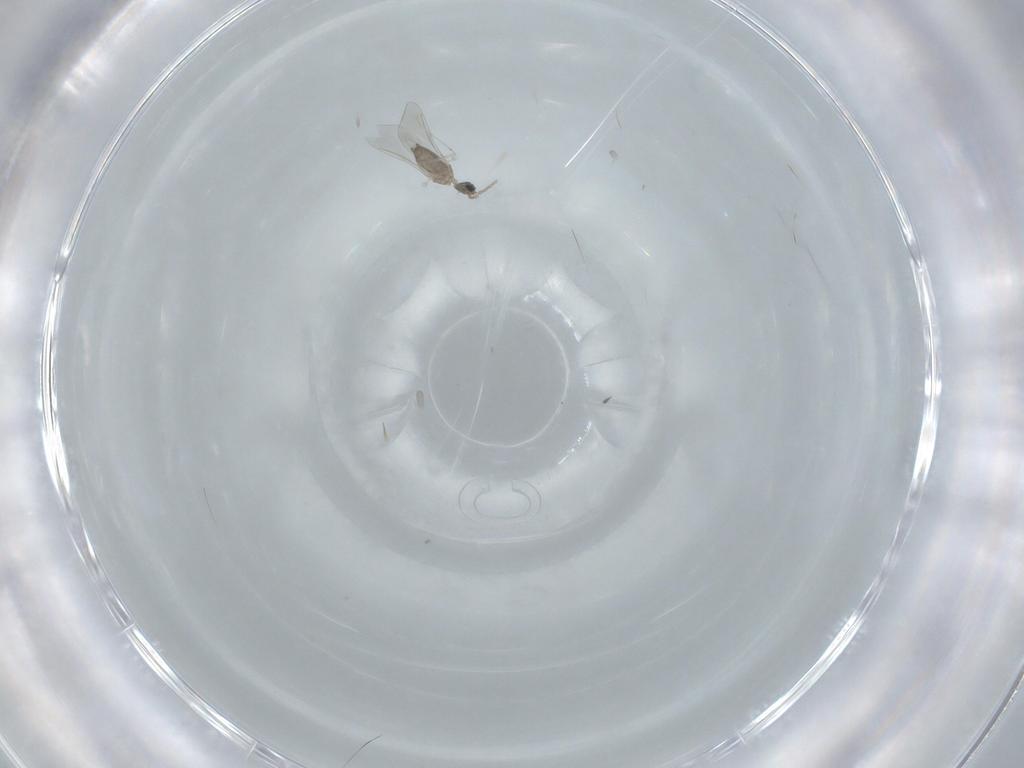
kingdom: Animalia
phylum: Arthropoda
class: Insecta
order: Diptera
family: Cecidomyiidae
